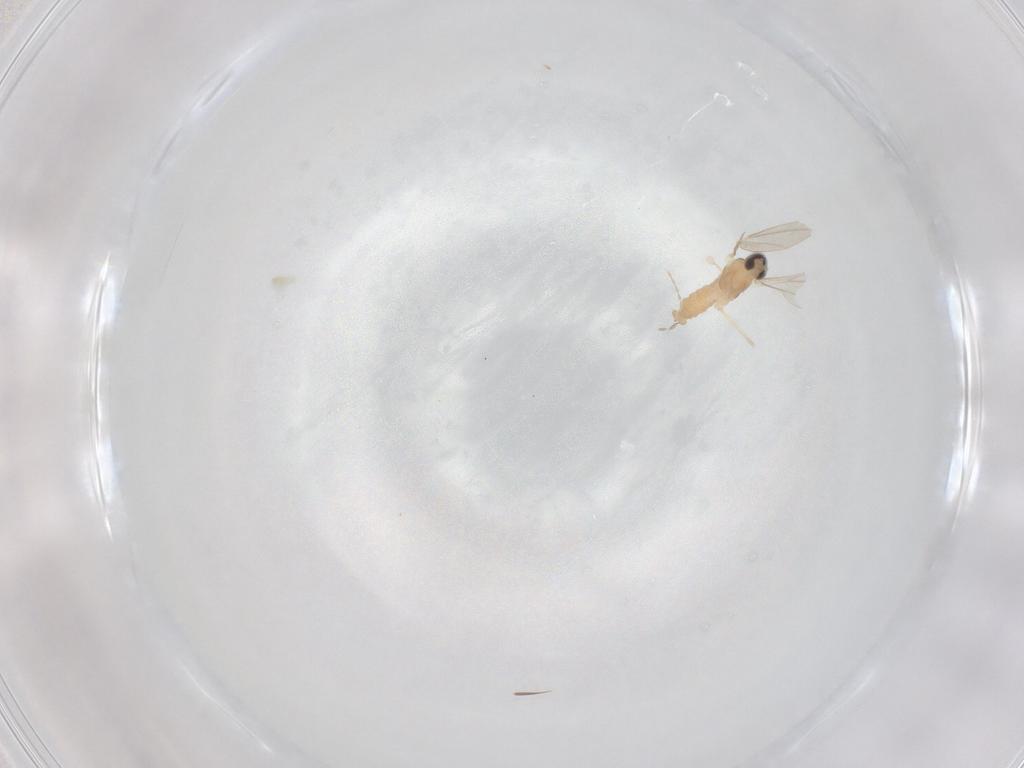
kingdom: Animalia
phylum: Arthropoda
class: Insecta
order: Diptera
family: Cecidomyiidae
